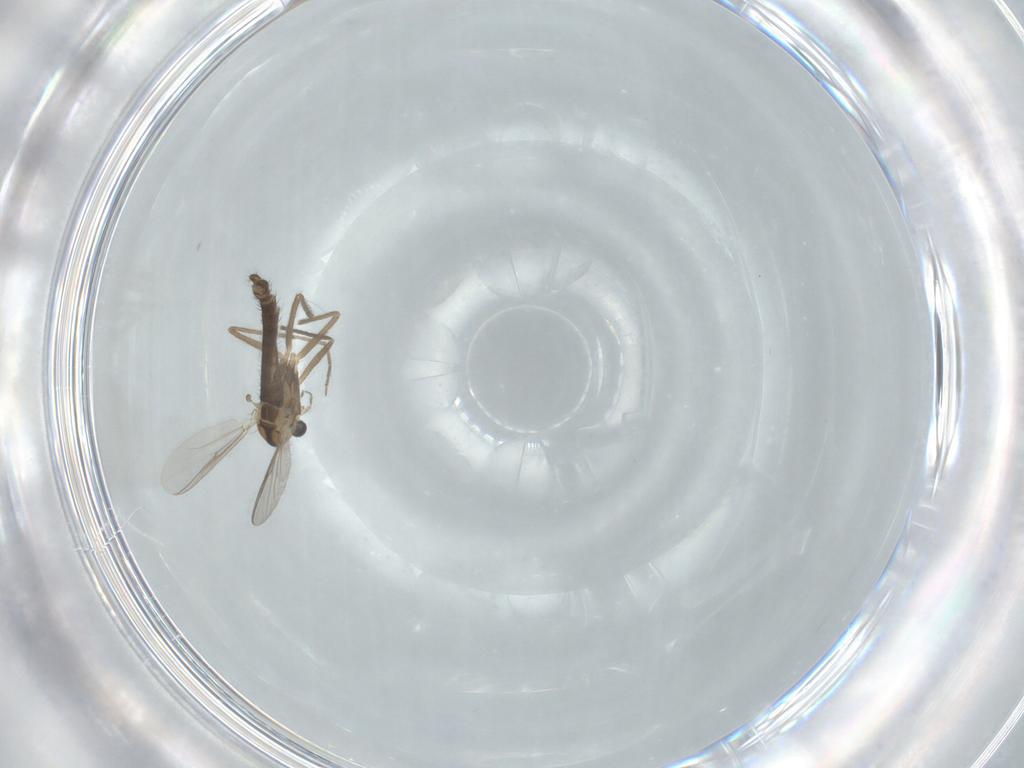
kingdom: Animalia
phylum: Arthropoda
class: Insecta
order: Diptera
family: Chironomidae
